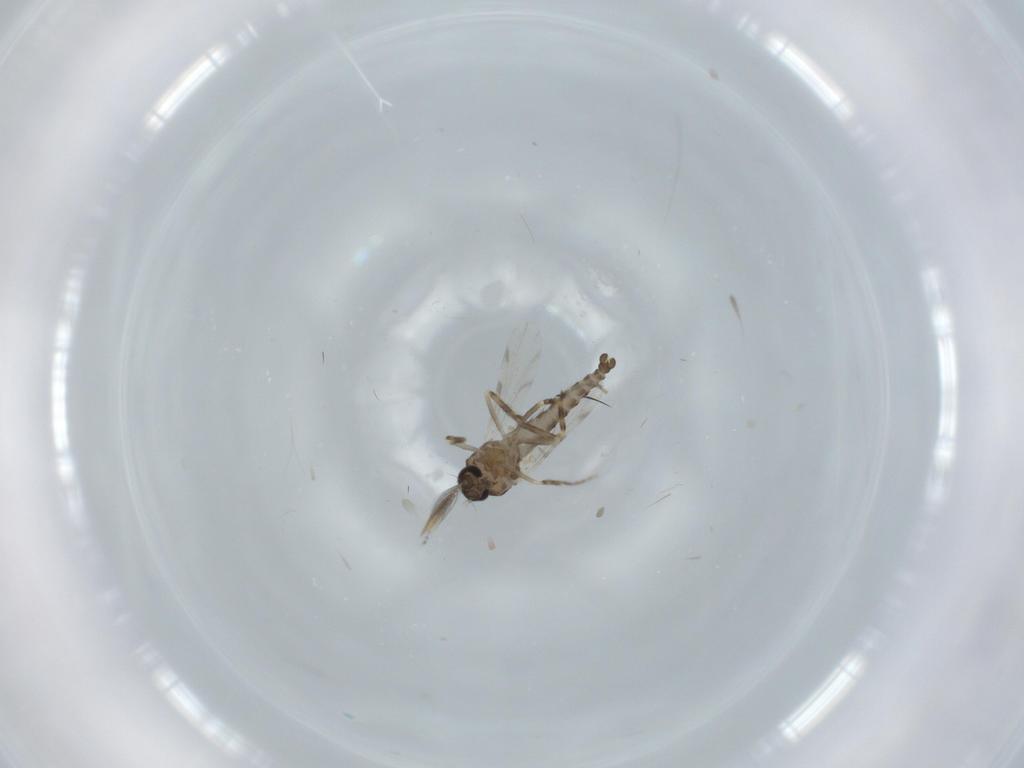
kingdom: Animalia
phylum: Arthropoda
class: Insecta
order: Diptera
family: Ceratopogonidae
